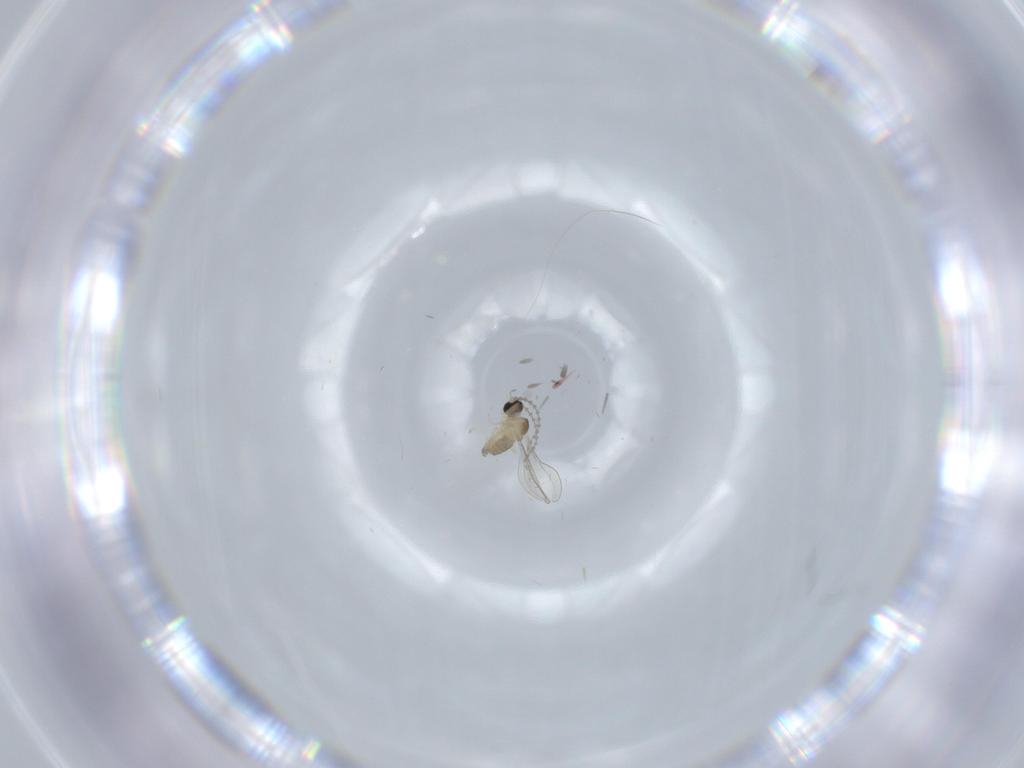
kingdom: Animalia
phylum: Arthropoda
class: Insecta
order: Diptera
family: Cecidomyiidae
